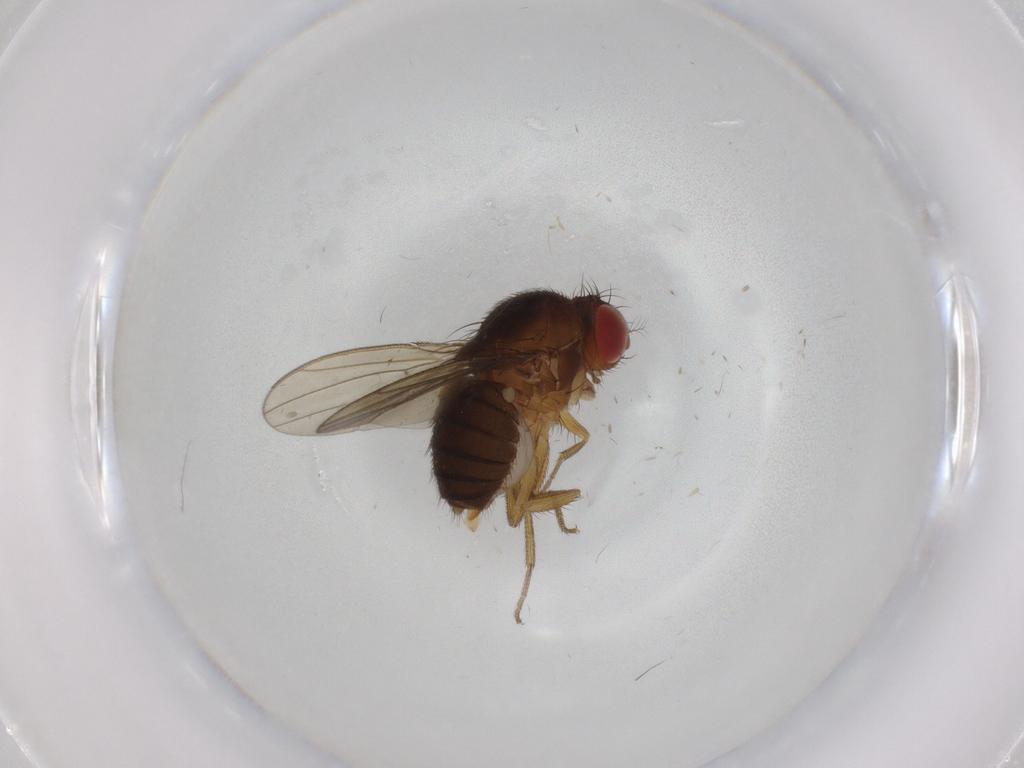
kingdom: Animalia
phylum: Arthropoda
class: Insecta
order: Diptera
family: Drosophilidae
